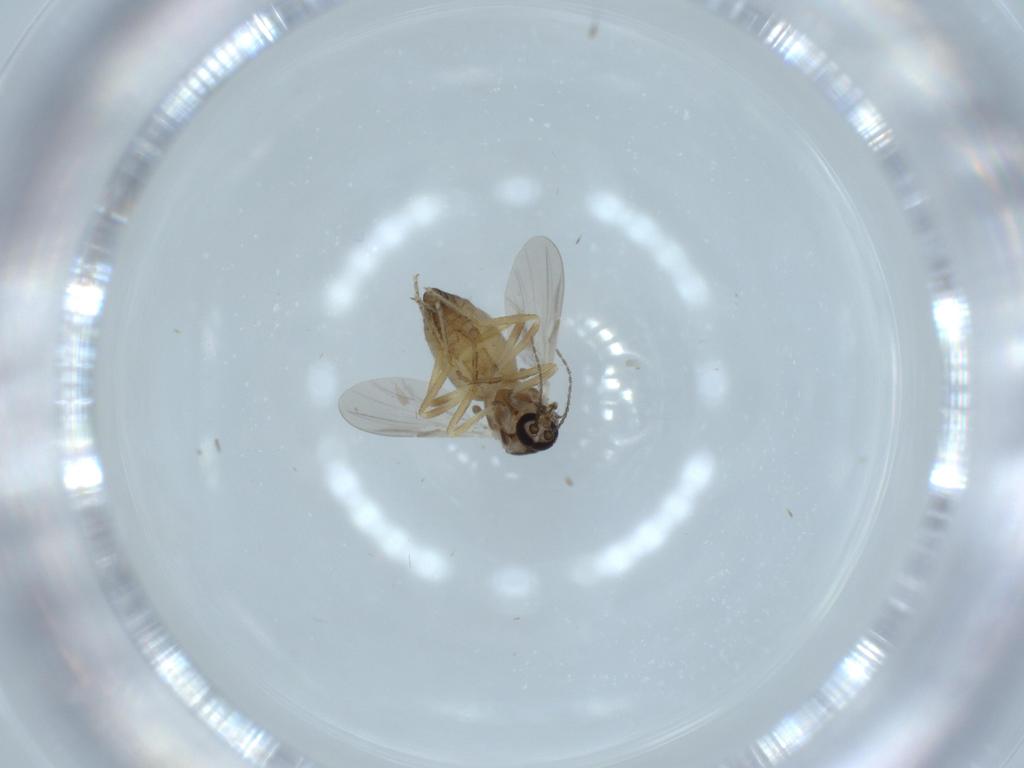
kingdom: Animalia
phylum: Arthropoda
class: Insecta
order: Diptera
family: Ceratopogonidae
